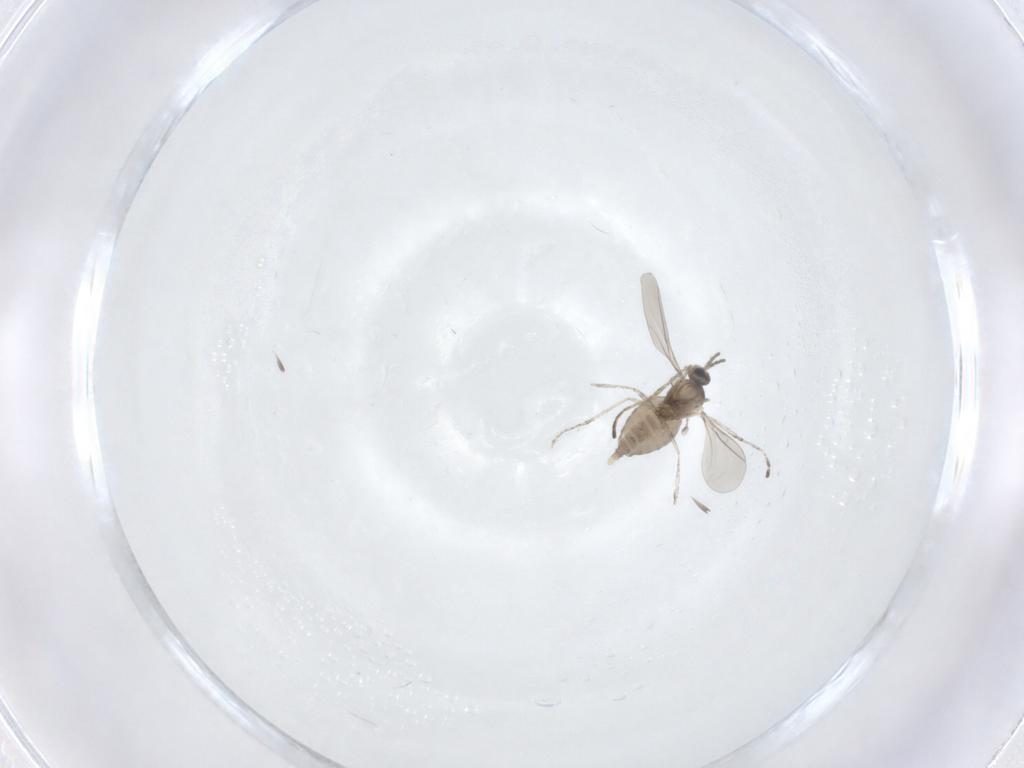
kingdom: Animalia
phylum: Arthropoda
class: Insecta
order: Diptera
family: Cecidomyiidae
